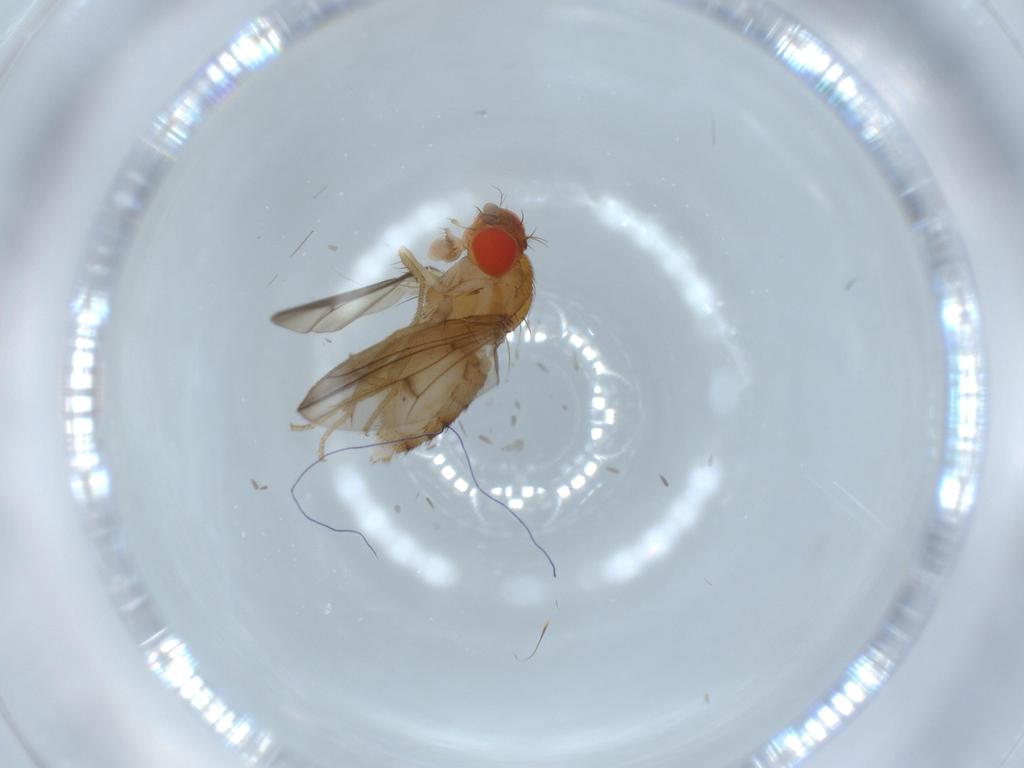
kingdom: Animalia
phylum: Arthropoda
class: Insecta
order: Diptera
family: Drosophilidae
